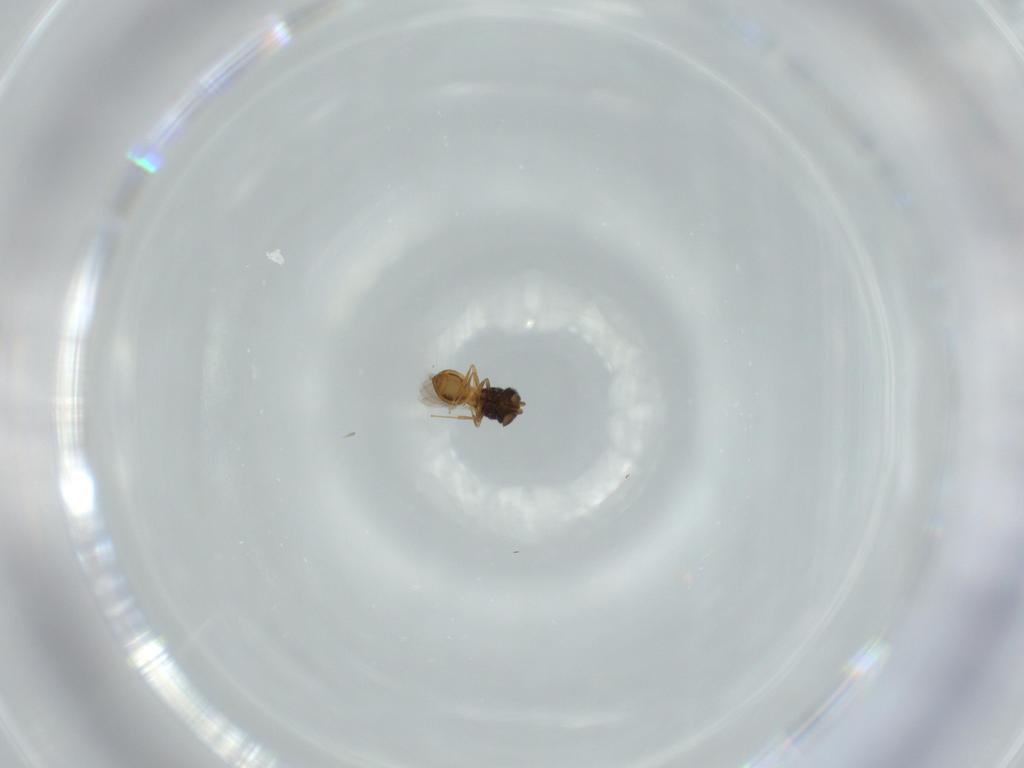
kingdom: Animalia
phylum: Arthropoda
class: Insecta
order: Hymenoptera
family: Scelionidae
